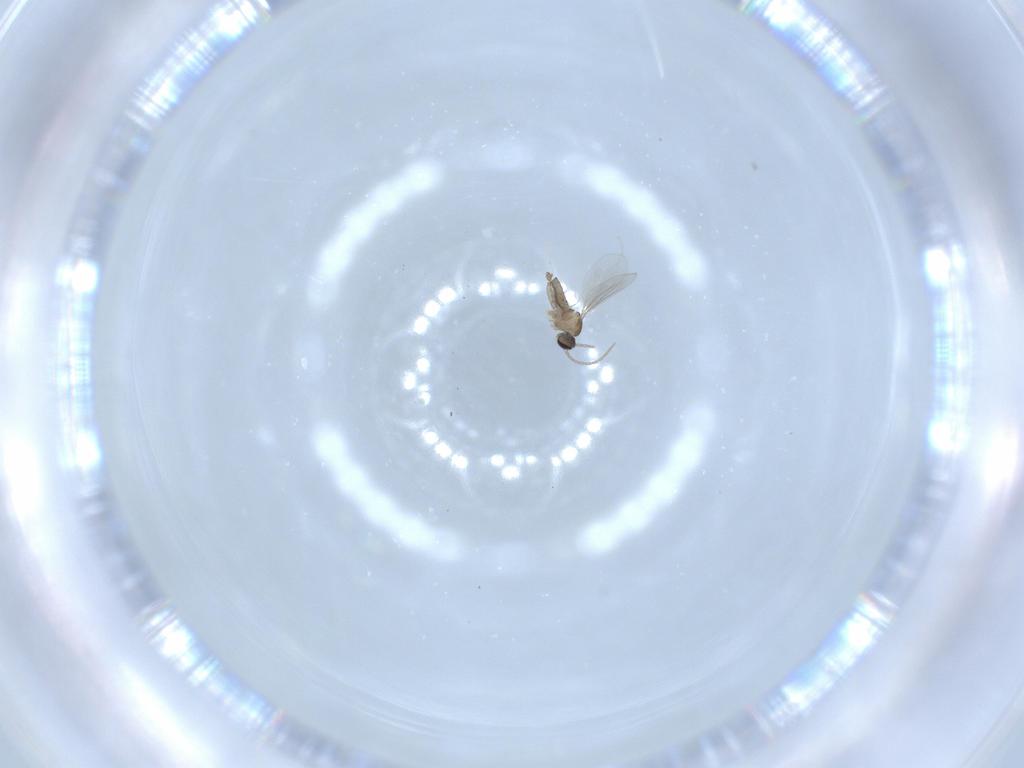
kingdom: Animalia
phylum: Arthropoda
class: Insecta
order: Diptera
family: Cecidomyiidae
